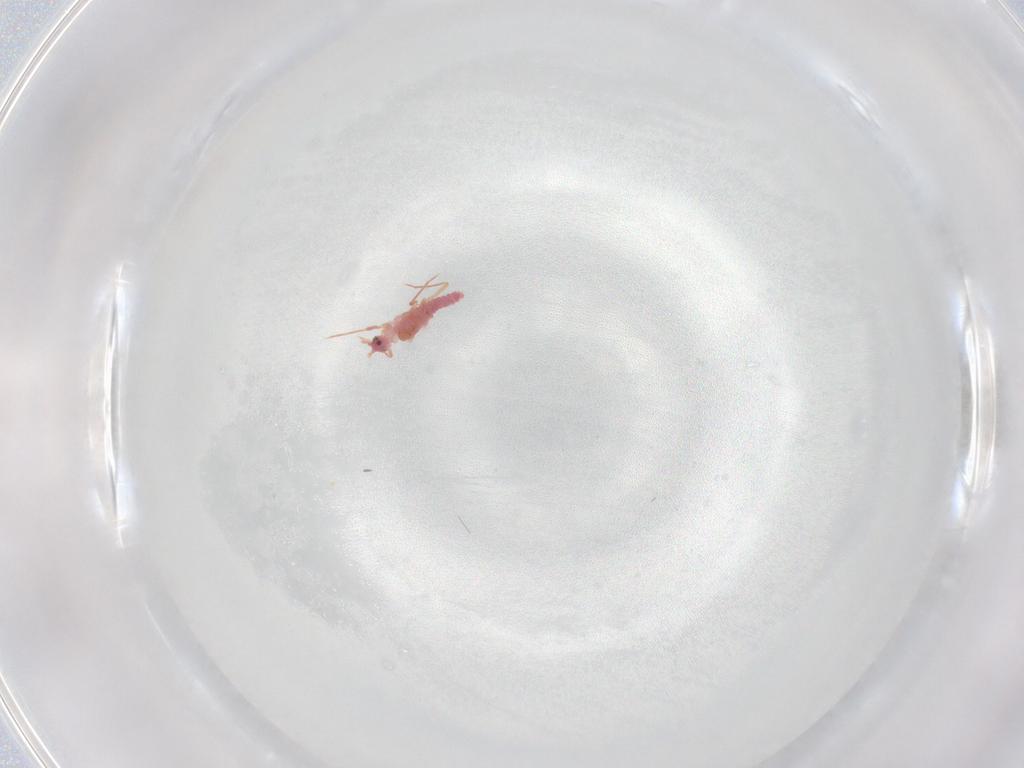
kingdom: Animalia
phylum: Arthropoda
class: Insecta
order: Hemiptera
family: Pseudococcidae
